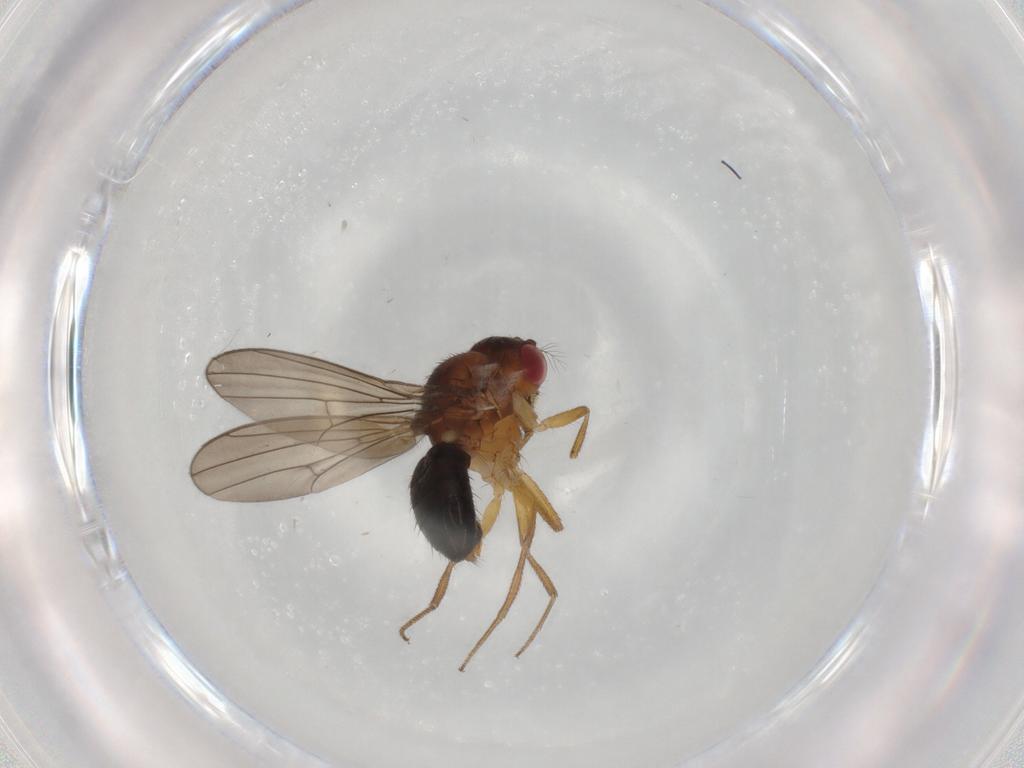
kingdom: Animalia
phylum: Arthropoda
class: Insecta
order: Diptera
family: Drosophilidae
